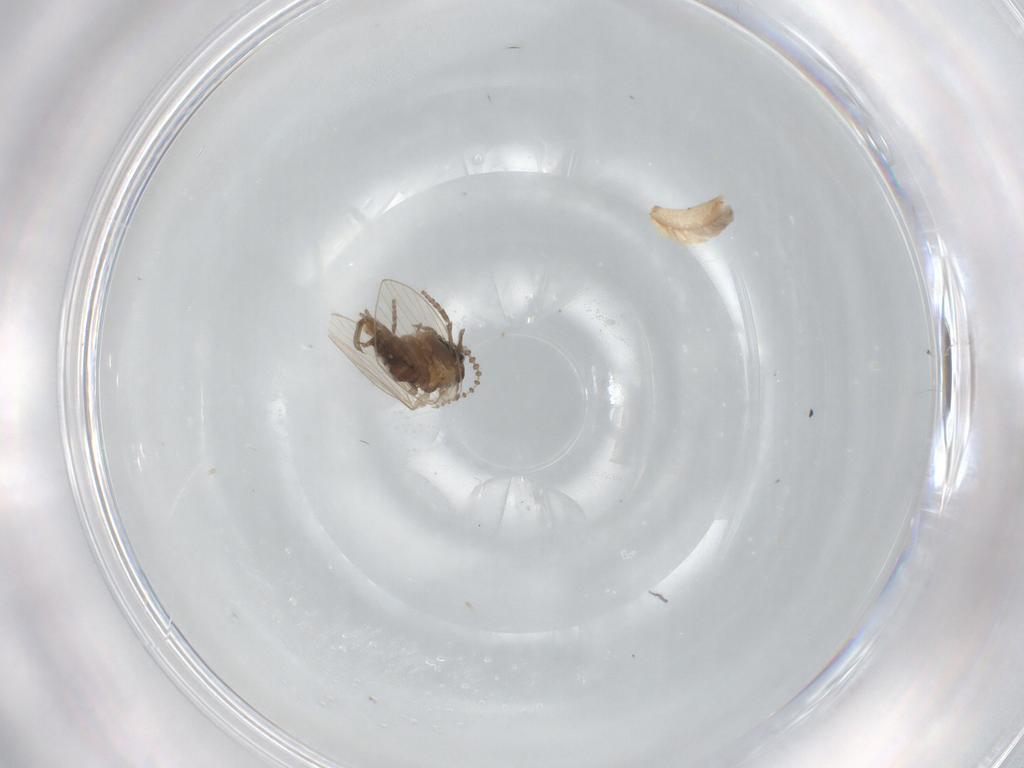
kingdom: Animalia
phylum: Arthropoda
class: Insecta
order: Diptera
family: Psychodidae
